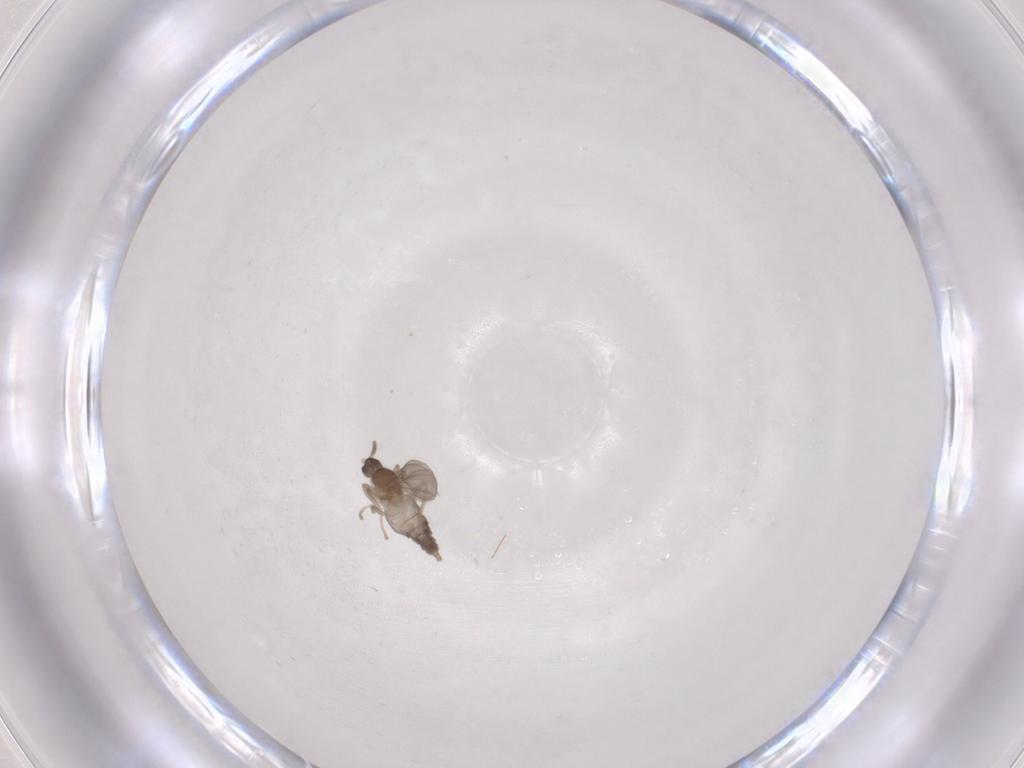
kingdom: Animalia
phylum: Arthropoda
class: Insecta
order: Diptera
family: Cecidomyiidae
